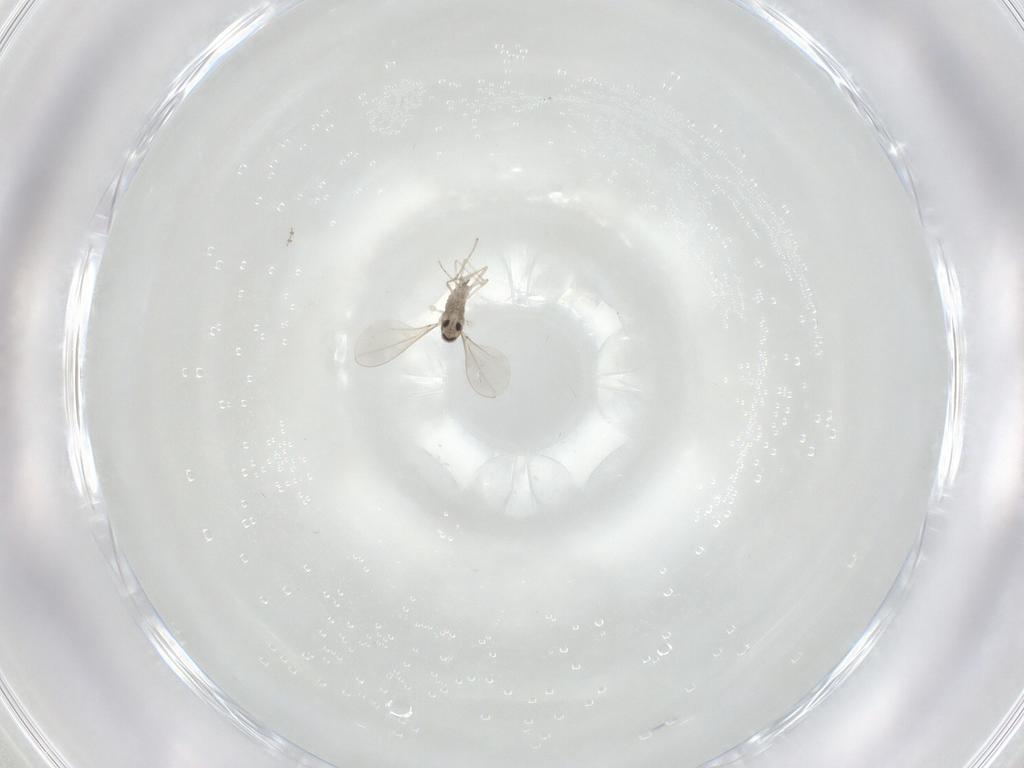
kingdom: Animalia
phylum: Arthropoda
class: Insecta
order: Diptera
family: Cecidomyiidae
